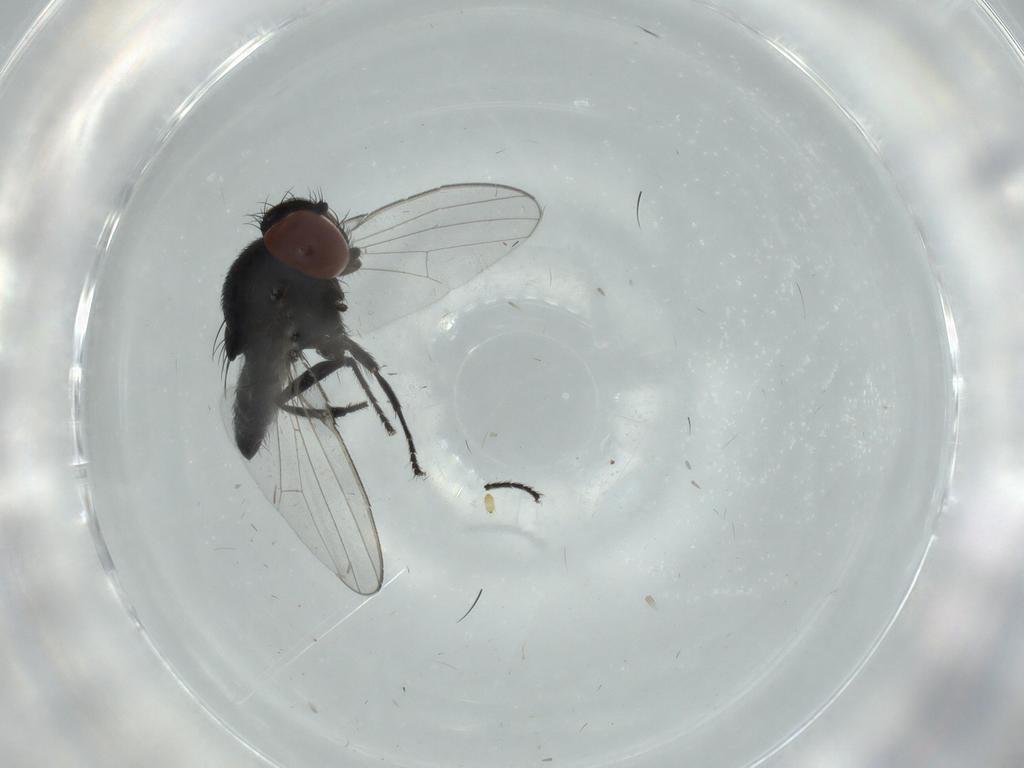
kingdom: Animalia
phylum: Arthropoda
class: Insecta
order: Diptera
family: Milichiidae
